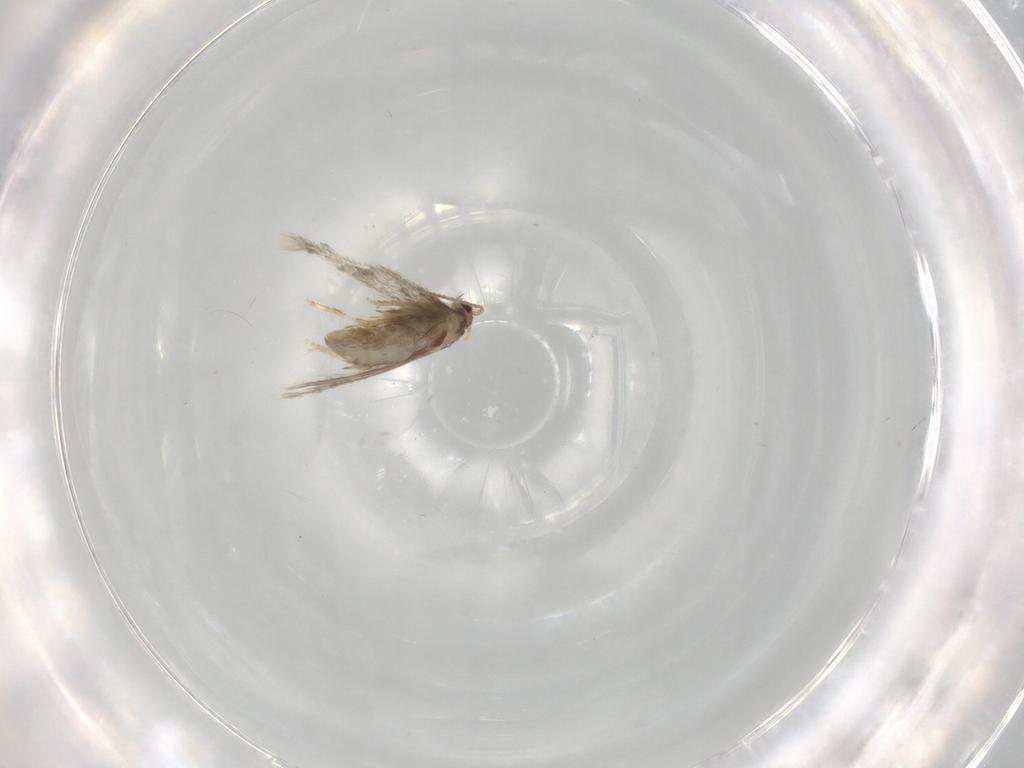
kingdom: Animalia
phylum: Arthropoda
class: Insecta
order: Lepidoptera
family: Nepticulidae
